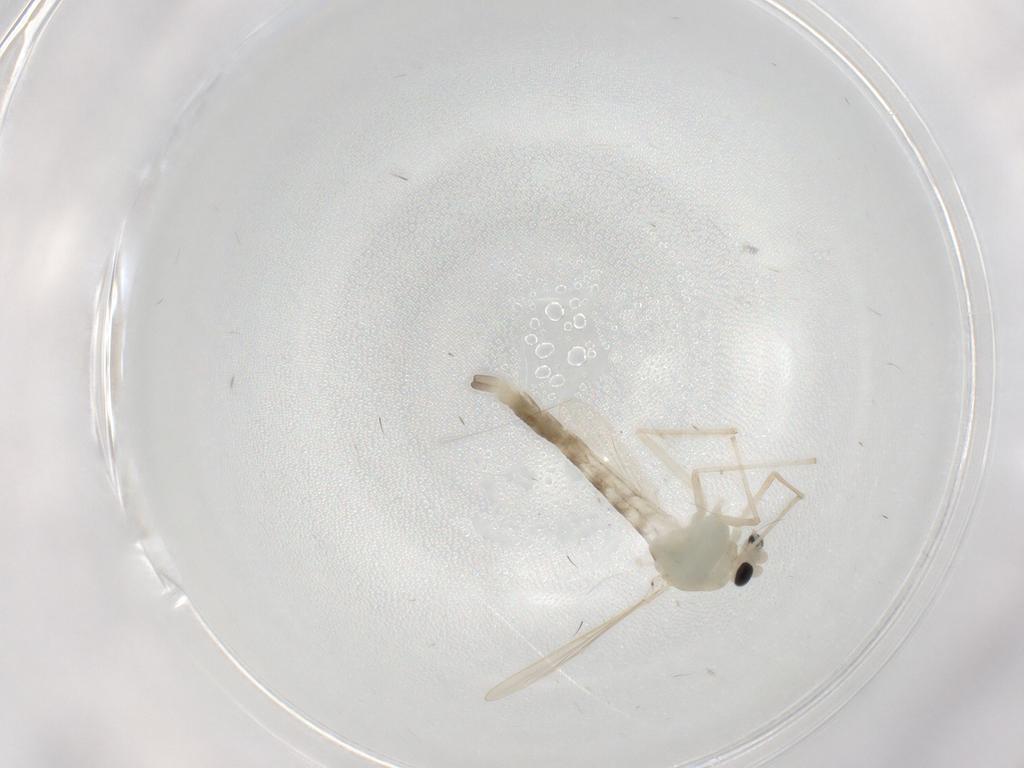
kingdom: Animalia
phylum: Arthropoda
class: Insecta
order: Diptera
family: Chironomidae
